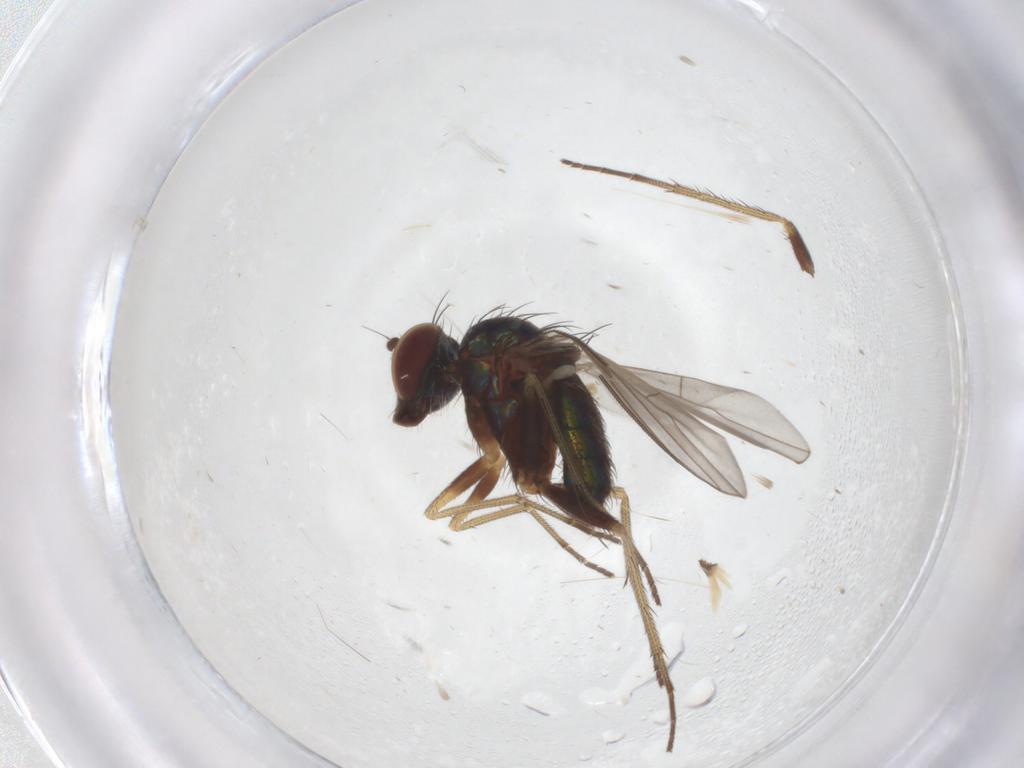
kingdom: Animalia
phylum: Arthropoda
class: Insecta
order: Diptera
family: Dolichopodidae
